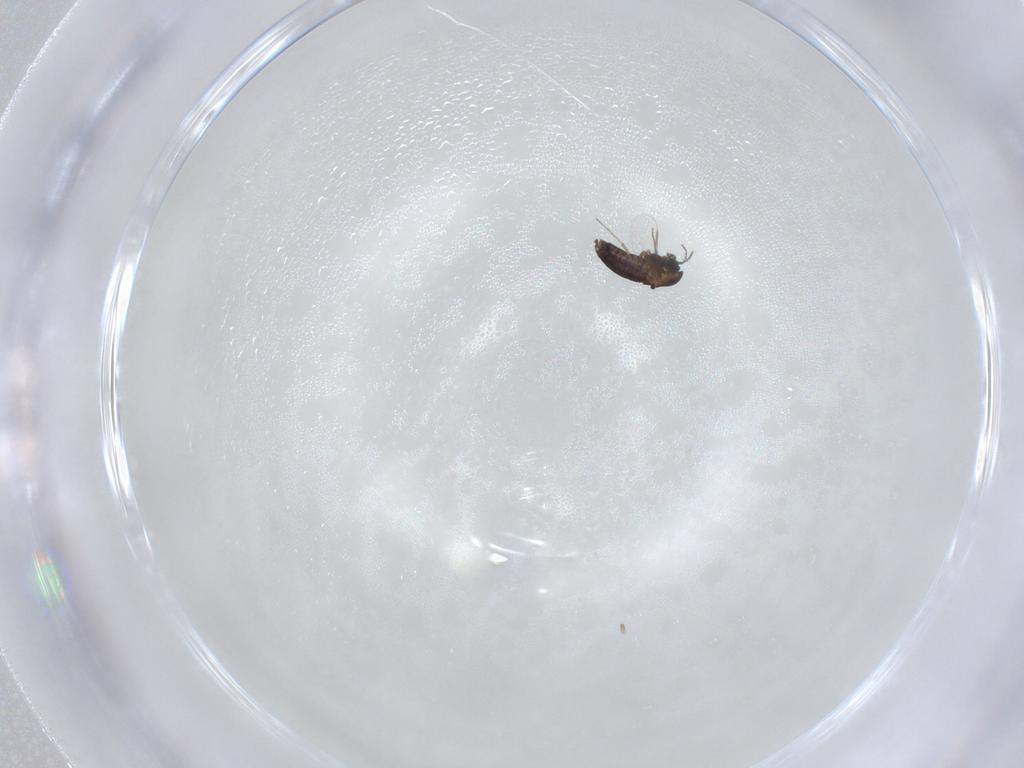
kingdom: Animalia
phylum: Arthropoda
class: Insecta
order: Diptera
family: Chironomidae
